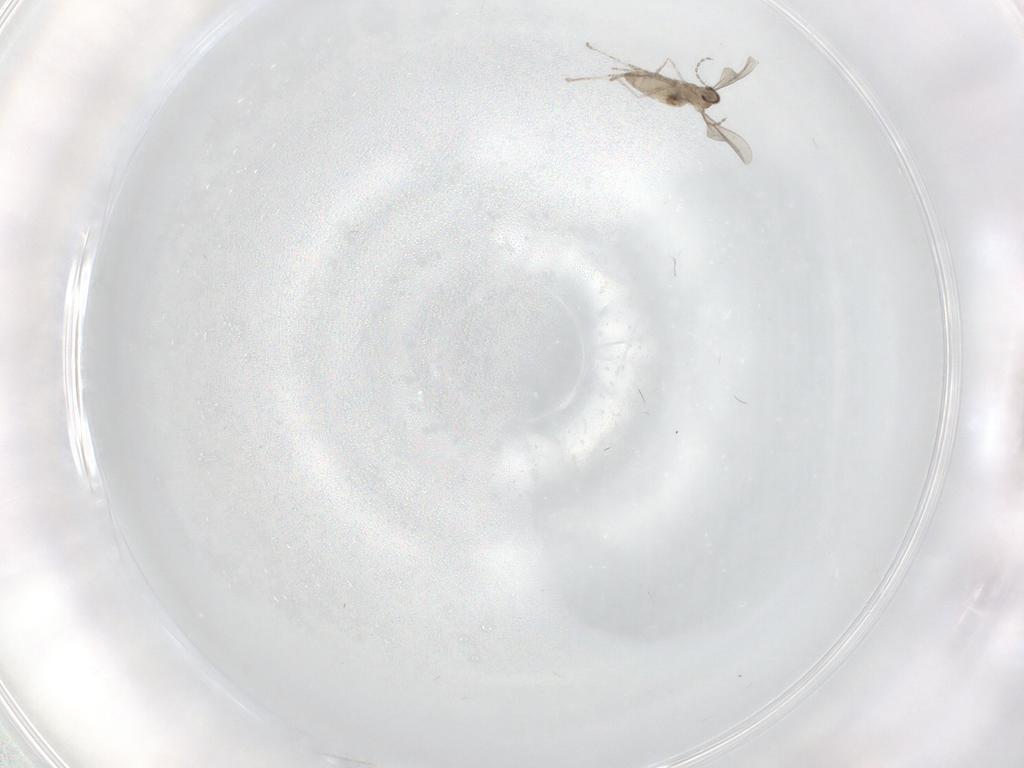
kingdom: Animalia
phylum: Arthropoda
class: Insecta
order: Diptera
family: Cecidomyiidae
